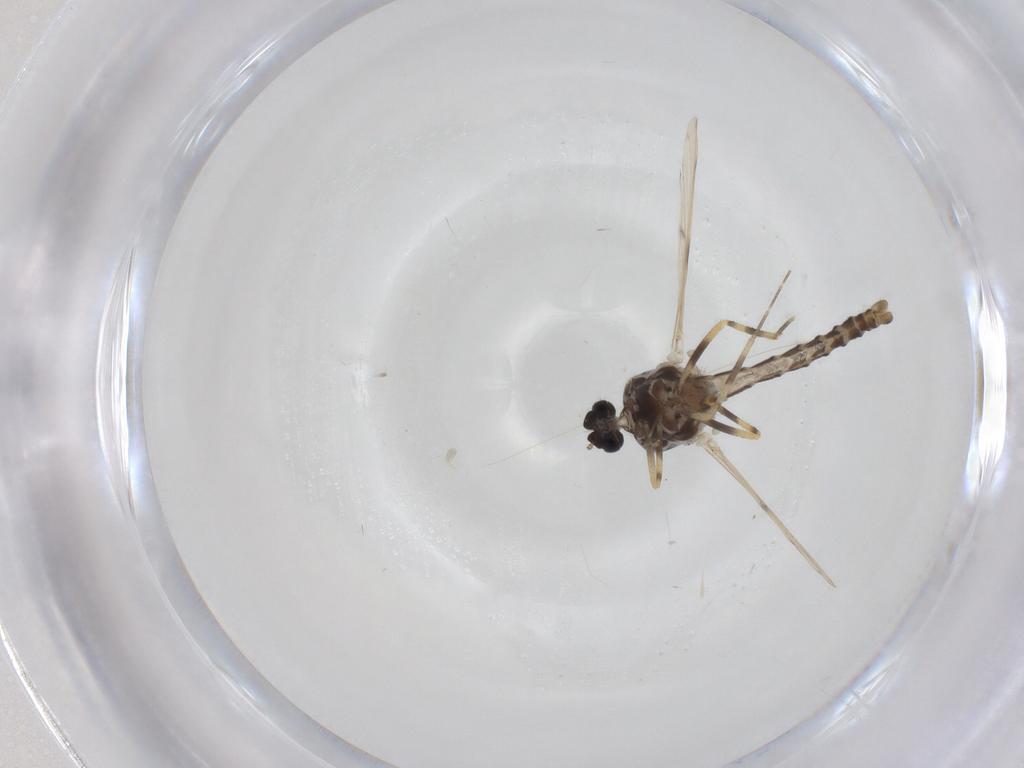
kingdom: Animalia
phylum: Arthropoda
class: Insecta
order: Diptera
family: Ceratopogonidae
